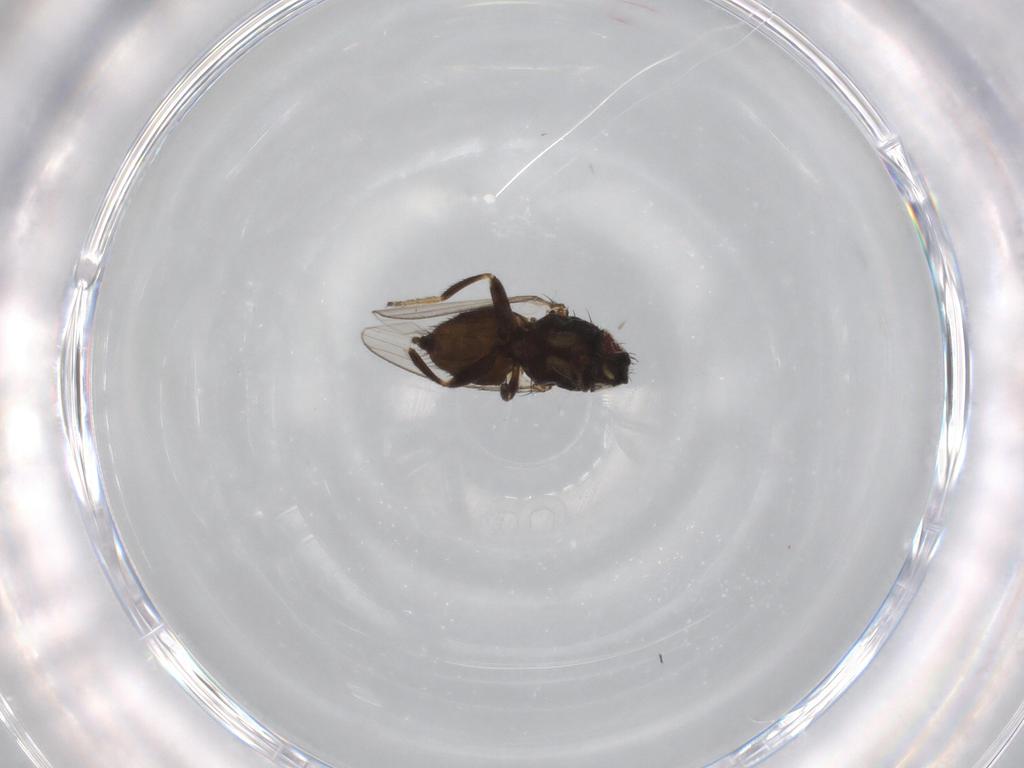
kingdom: Animalia
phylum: Arthropoda
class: Insecta
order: Diptera
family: Milichiidae
